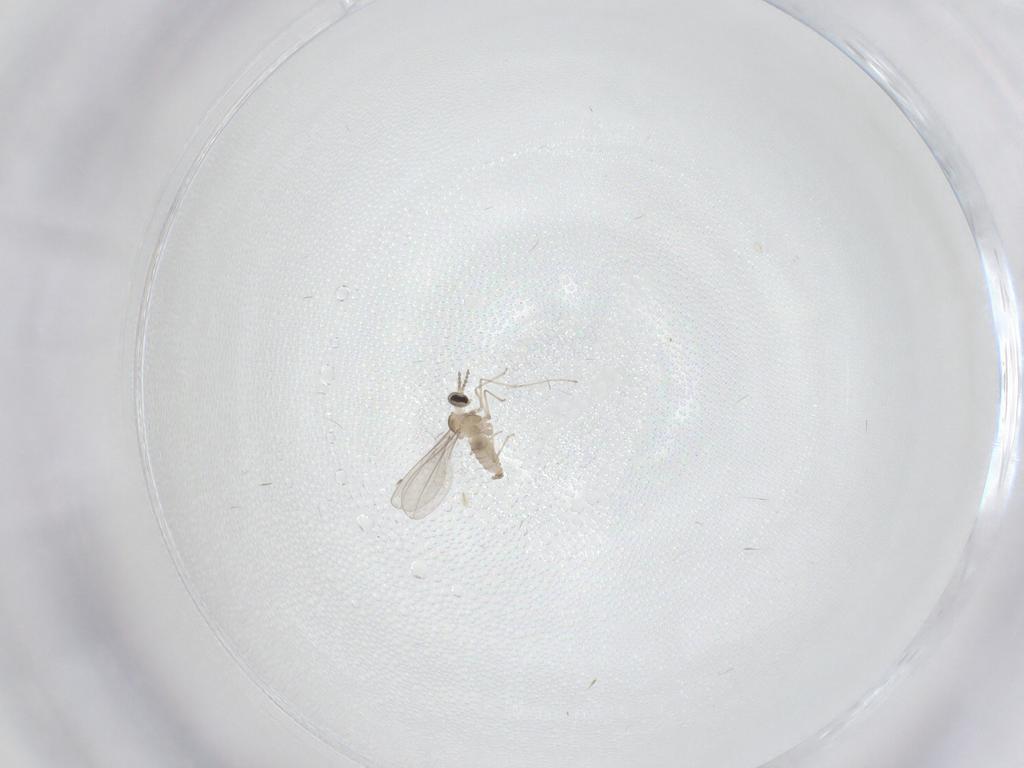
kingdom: Animalia
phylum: Arthropoda
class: Insecta
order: Diptera
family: Cecidomyiidae
